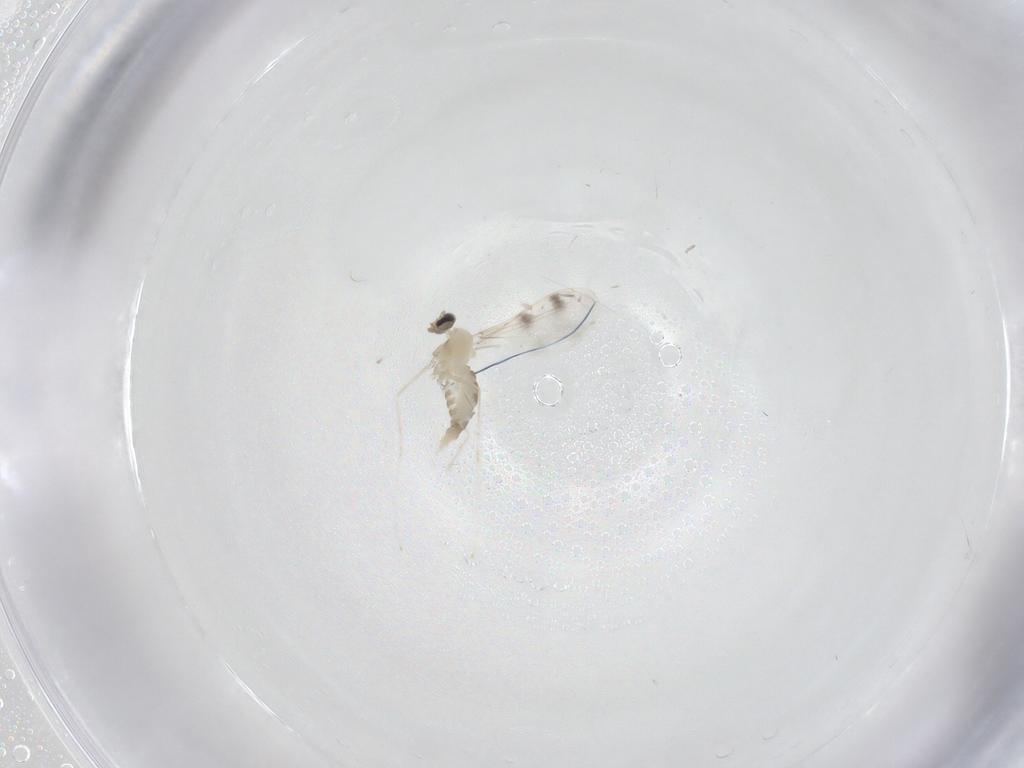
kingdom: Animalia
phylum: Arthropoda
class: Insecta
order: Diptera
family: Cecidomyiidae
